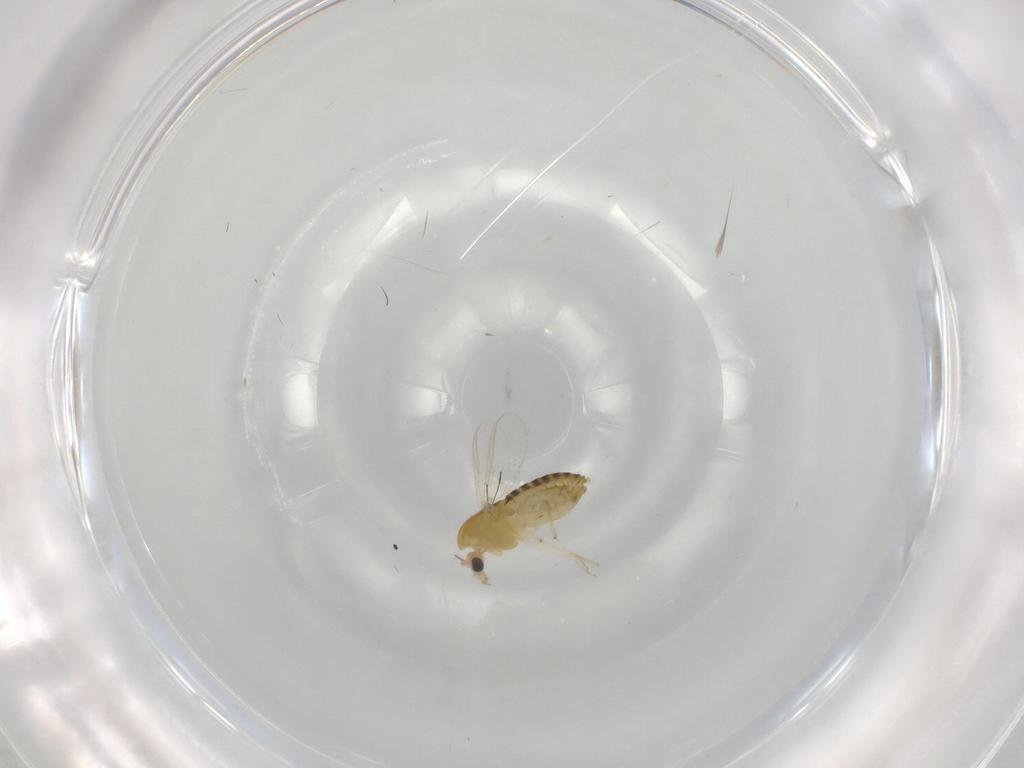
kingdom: Animalia
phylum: Arthropoda
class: Insecta
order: Diptera
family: Chironomidae
